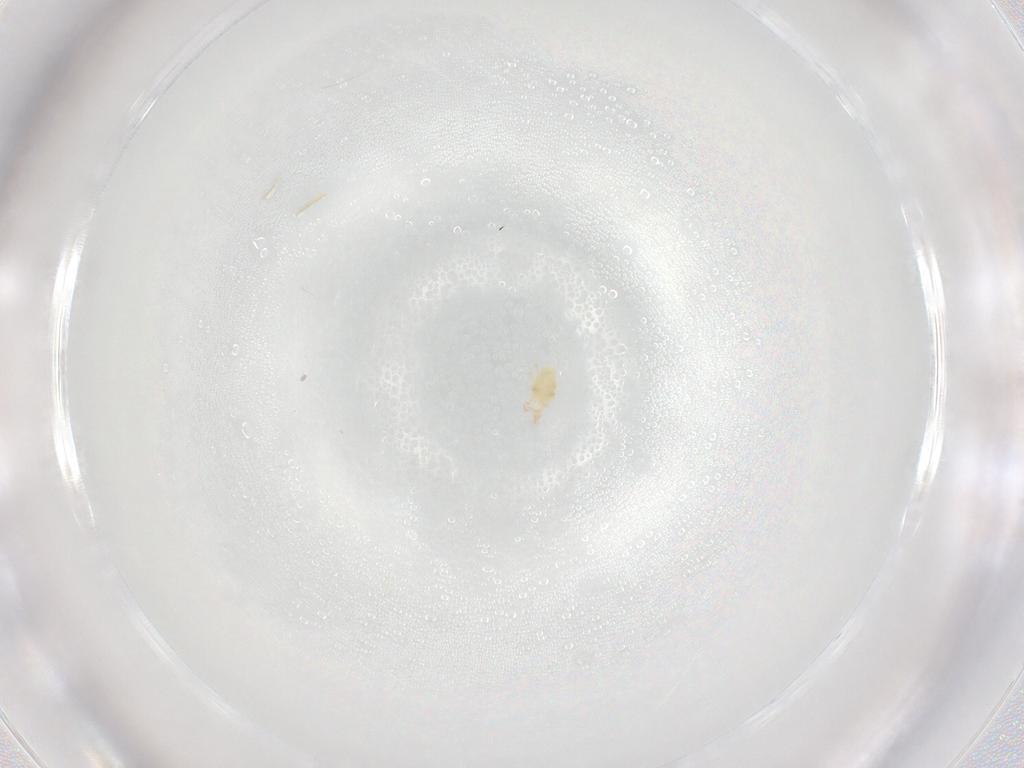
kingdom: Animalia
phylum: Arthropoda
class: Arachnida
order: Trombidiformes
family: Cunaxidae
